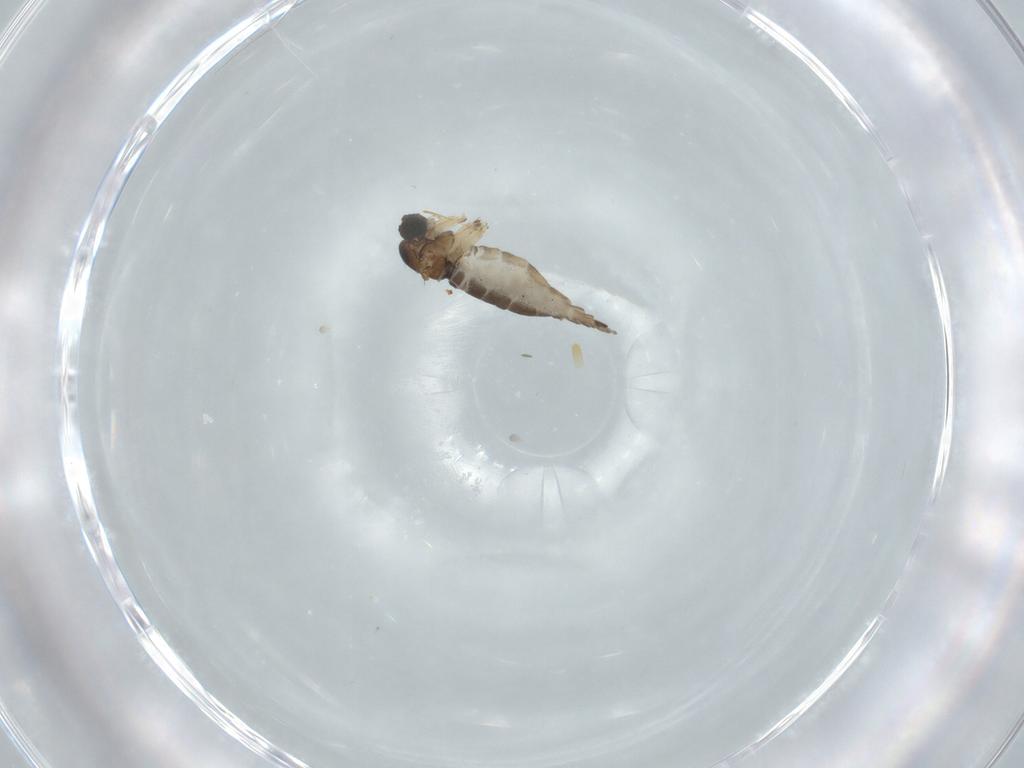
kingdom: Animalia
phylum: Arthropoda
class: Insecta
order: Diptera
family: Sciaridae
